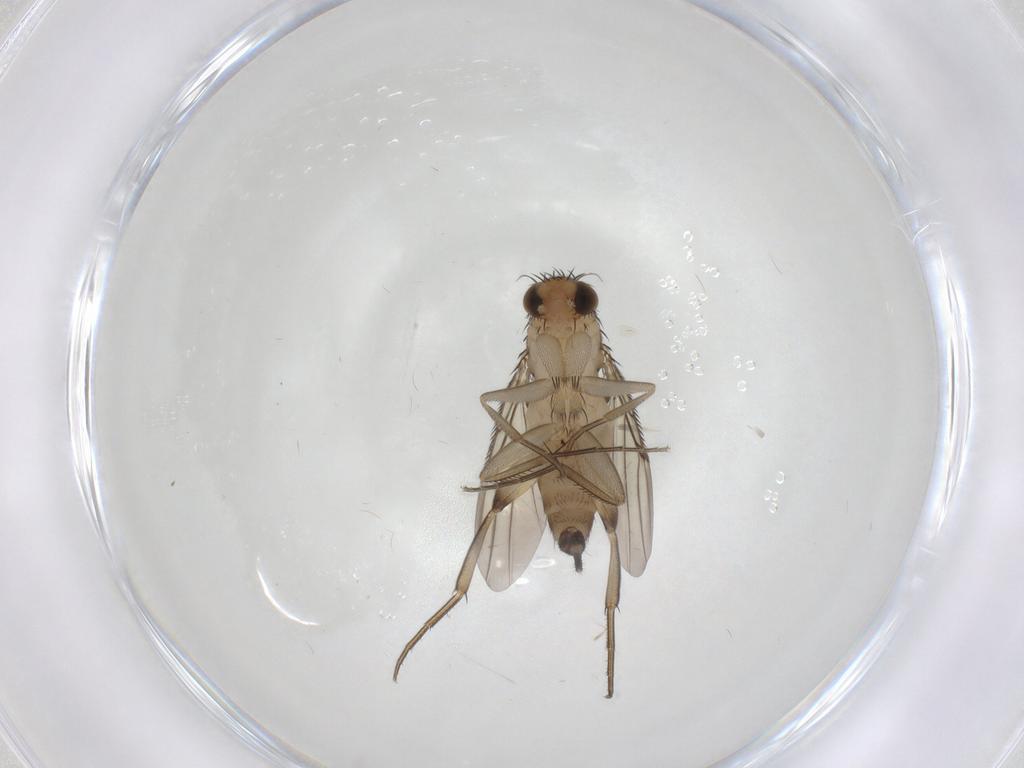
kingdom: Animalia
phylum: Arthropoda
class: Insecta
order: Diptera
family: Phoridae
